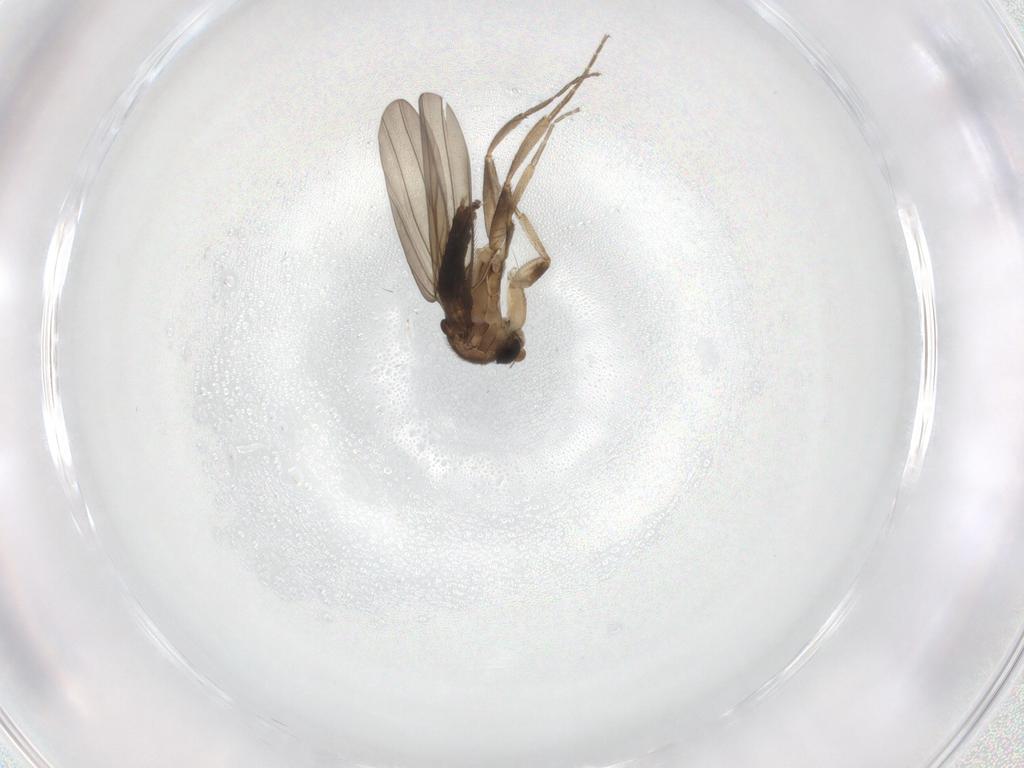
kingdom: Animalia
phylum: Arthropoda
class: Insecta
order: Diptera
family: Phoridae
